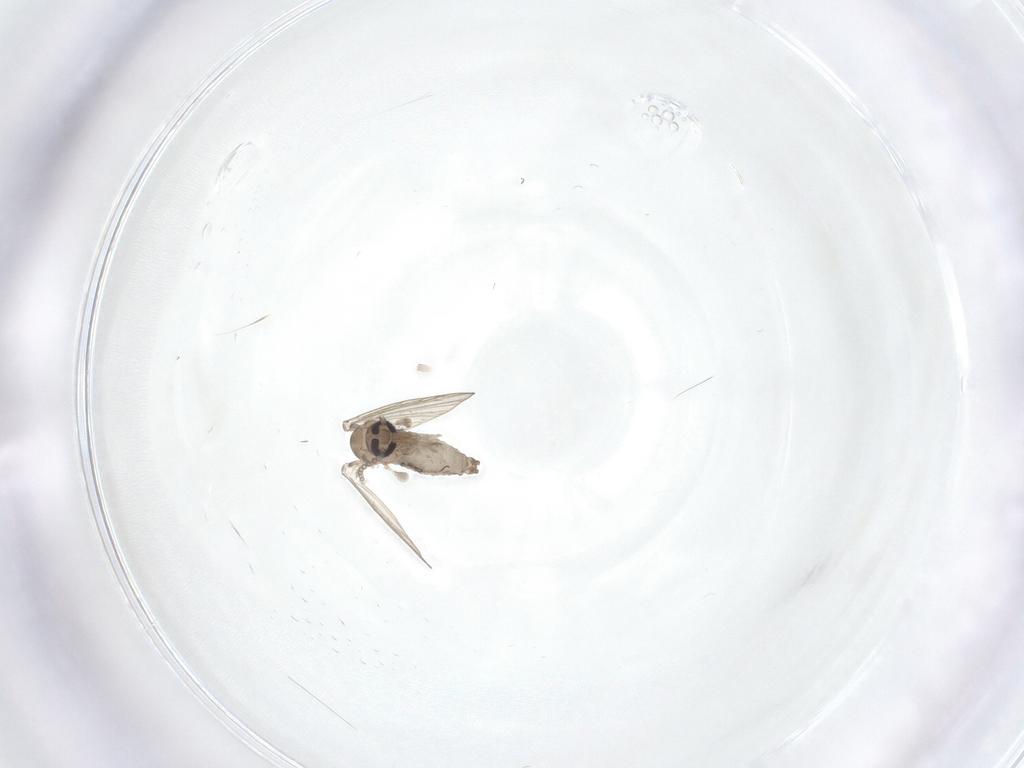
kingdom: Animalia
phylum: Arthropoda
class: Insecta
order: Diptera
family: Psychodidae
